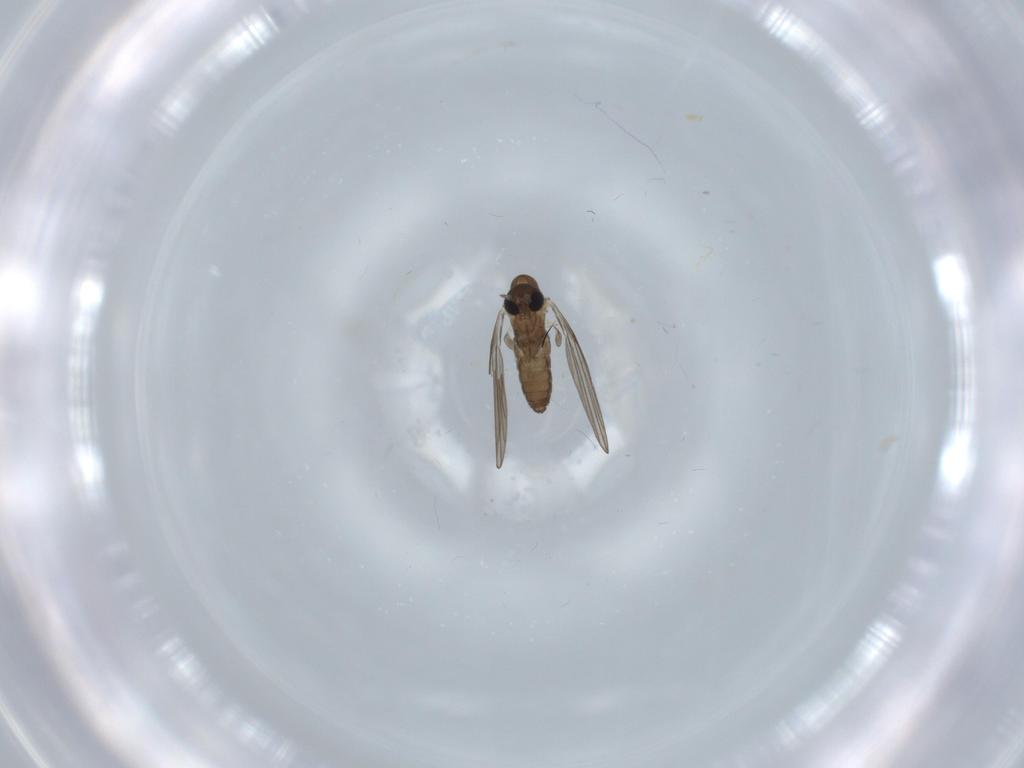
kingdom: Animalia
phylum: Arthropoda
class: Insecta
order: Diptera
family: Psychodidae
